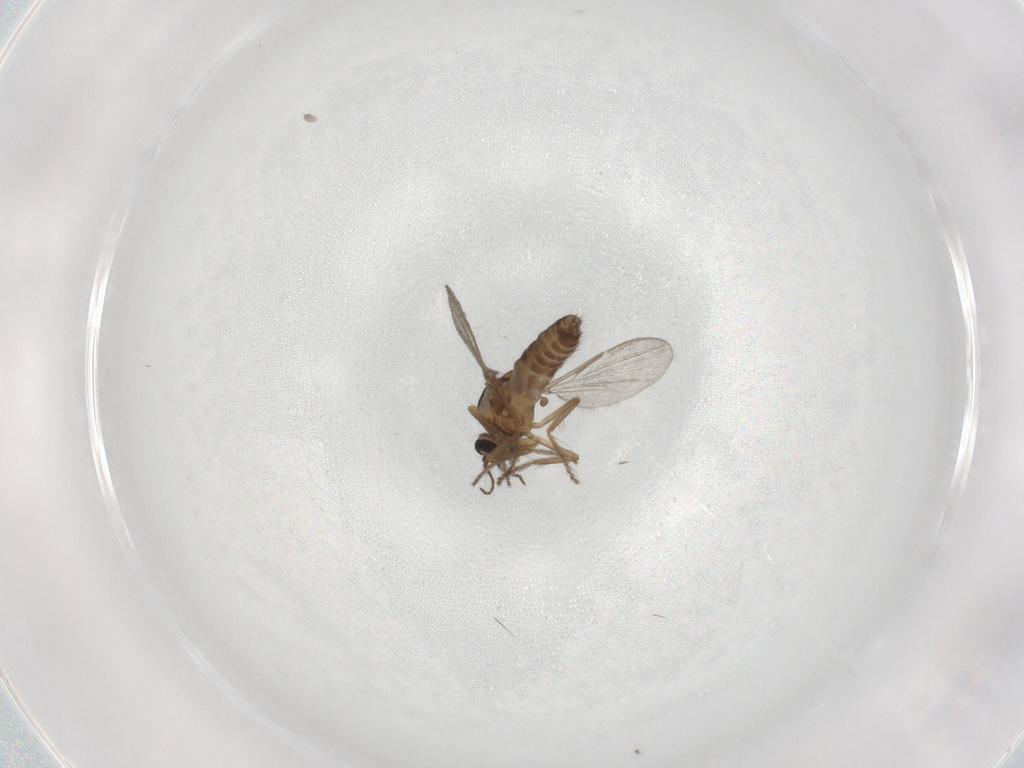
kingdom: Animalia
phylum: Arthropoda
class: Insecta
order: Diptera
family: Ceratopogonidae
